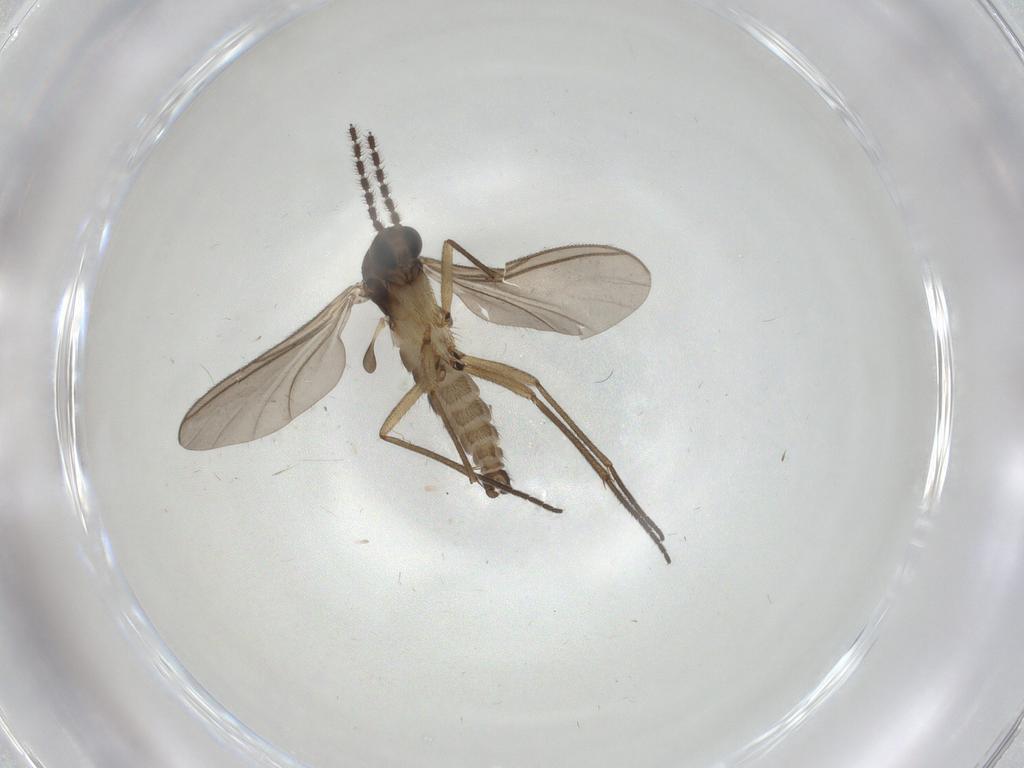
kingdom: Animalia
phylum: Arthropoda
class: Insecta
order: Diptera
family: Sciaridae
